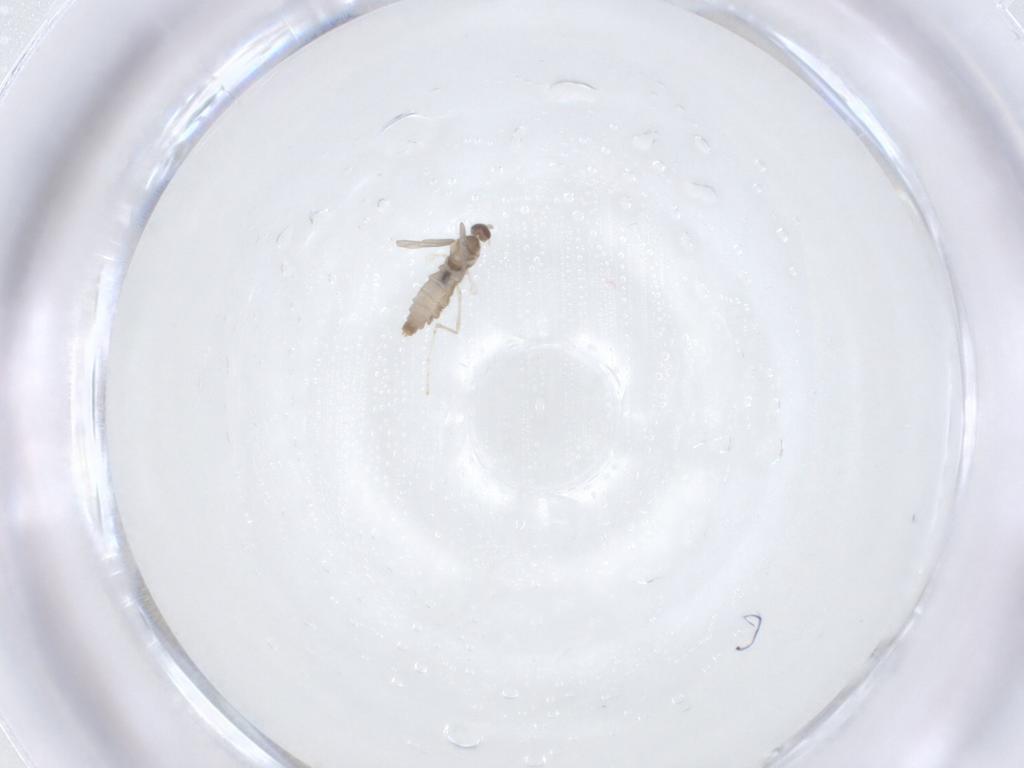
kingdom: Animalia
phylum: Arthropoda
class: Insecta
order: Diptera
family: Cecidomyiidae
